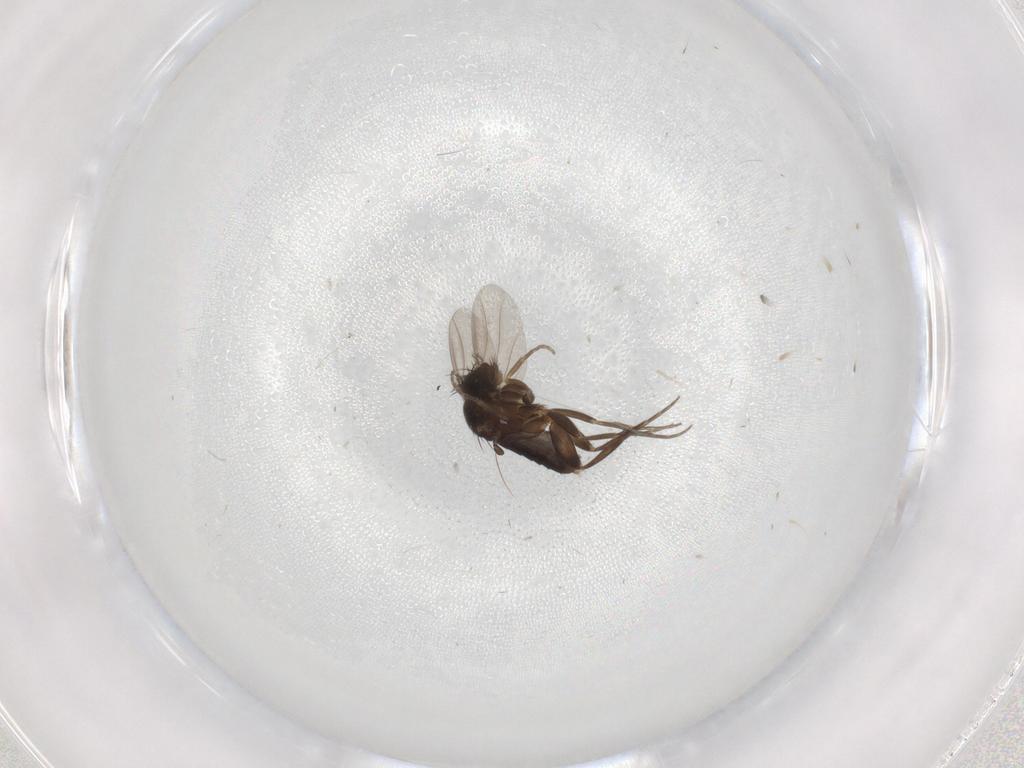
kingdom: Animalia
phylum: Arthropoda
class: Insecta
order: Diptera
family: Phoridae
